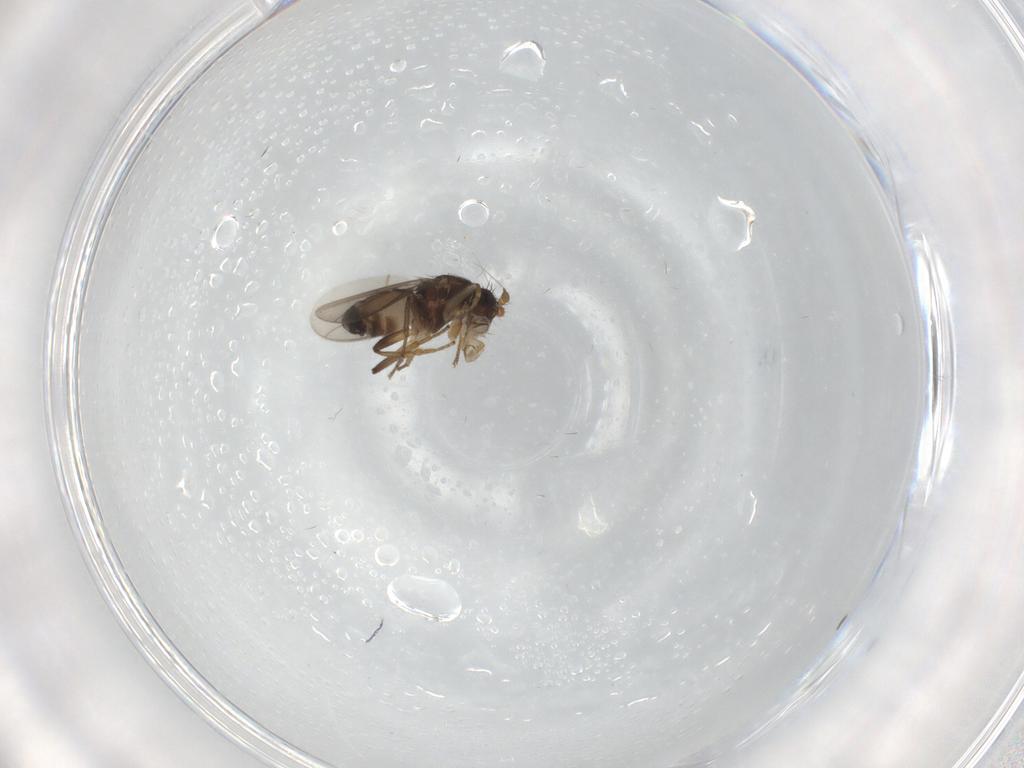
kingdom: Animalia
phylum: Arthropoda
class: Insecta
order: Diptera
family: Sphaeroceridae
